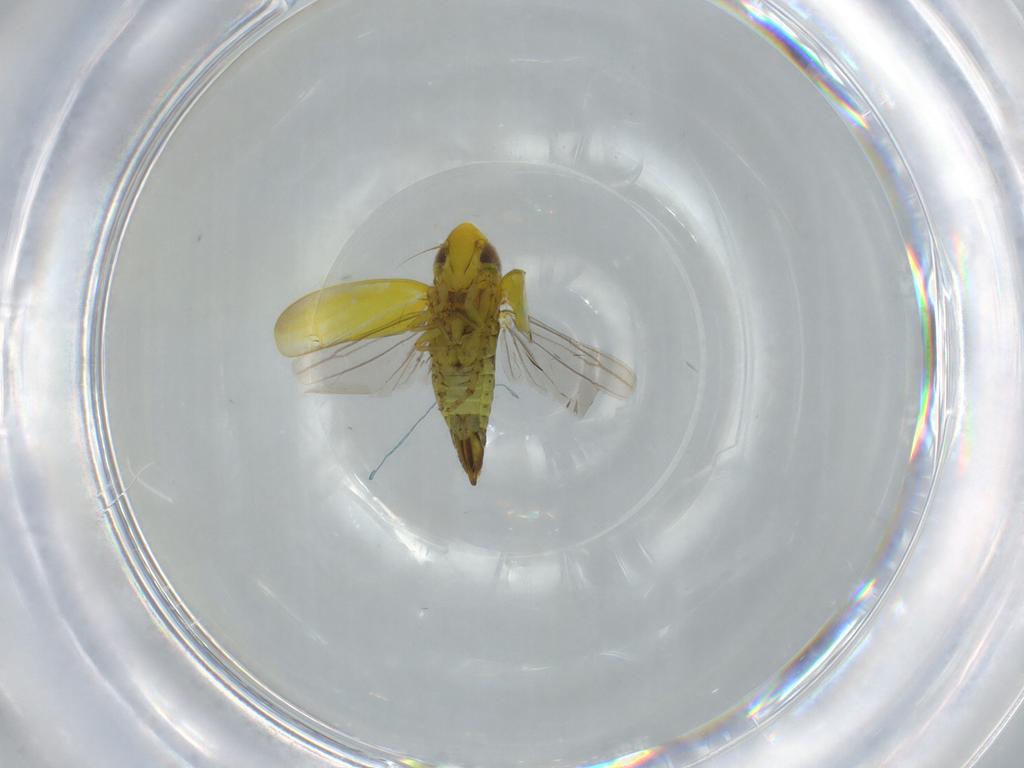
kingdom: Animalia
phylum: Arthropoda
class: Insecta
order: Hemiptera
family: Cicadellidae
